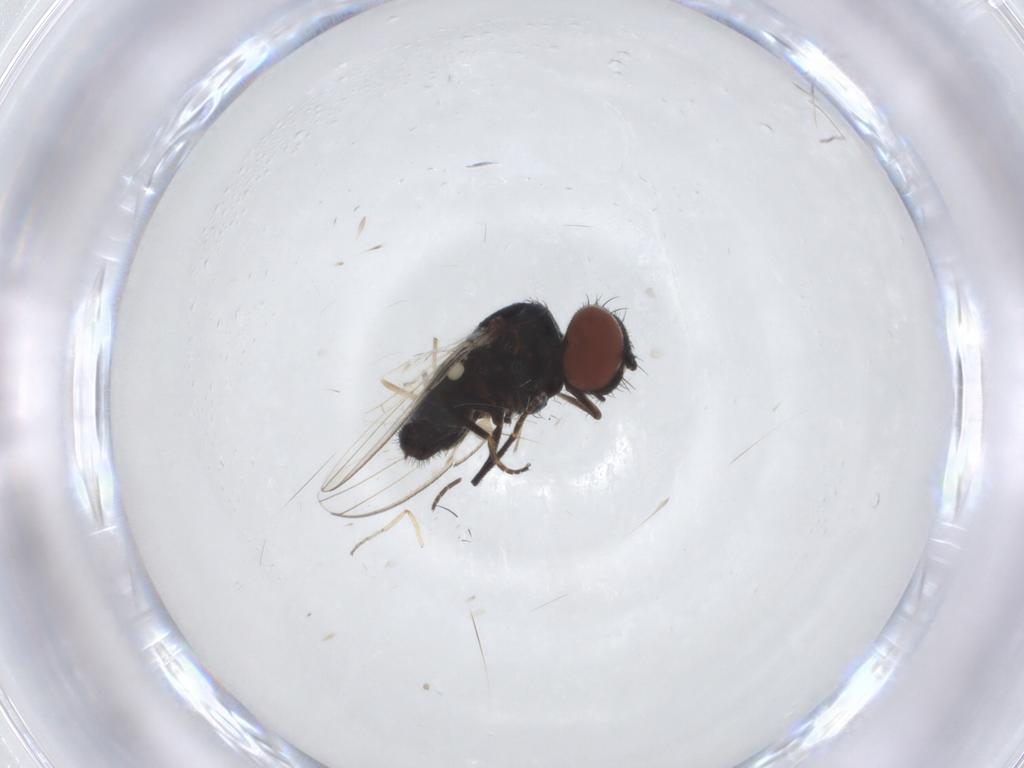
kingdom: Animalia
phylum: Arthropoda
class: Insecta
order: Diptera
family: Milichiidae
